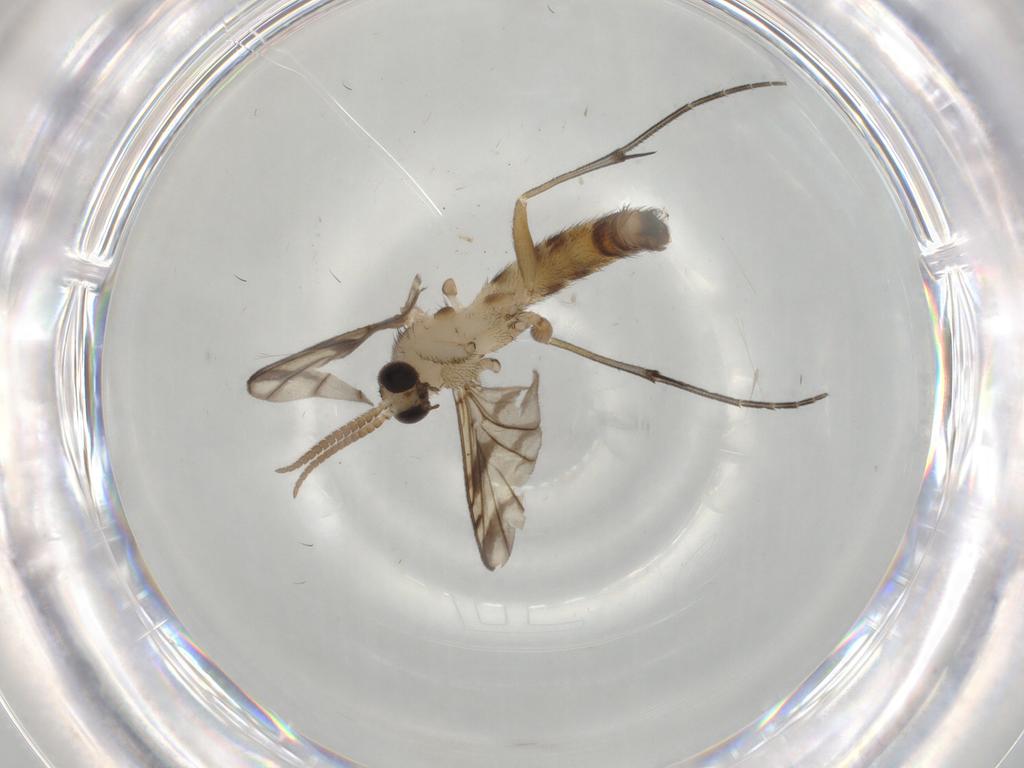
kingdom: Animalia
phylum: Arthropoda
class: Insecta
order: Diptera
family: Keroplatidae
